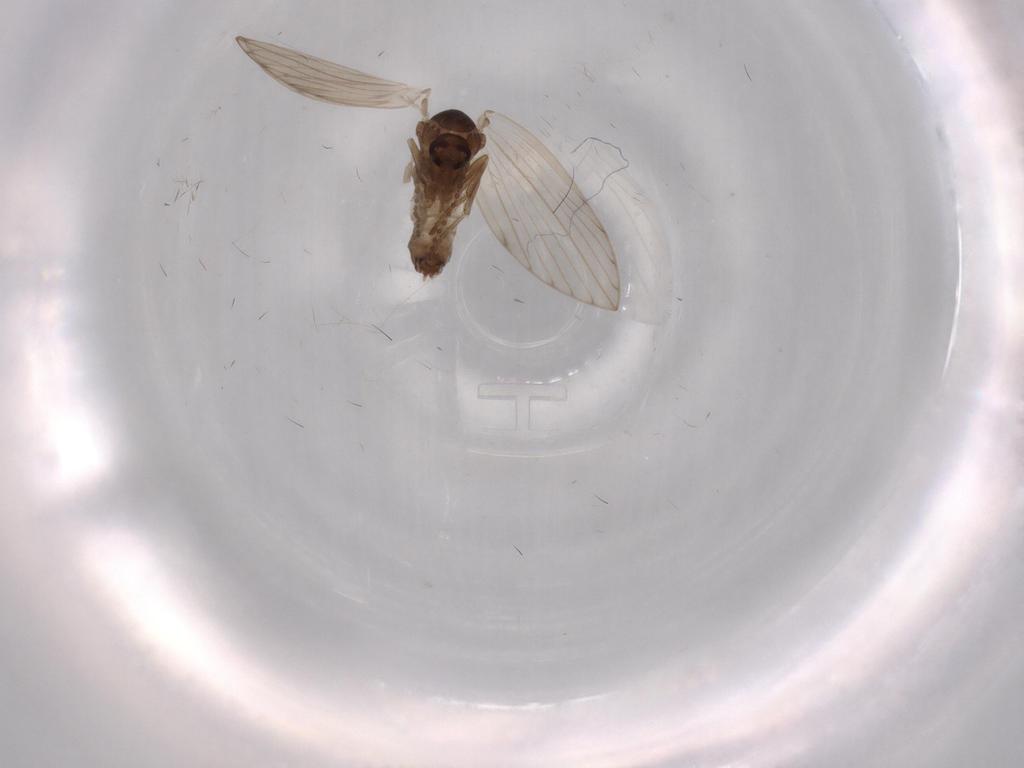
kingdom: Animalia
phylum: Arthropoda
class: Insecta
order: Diptera
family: Psychodidae
